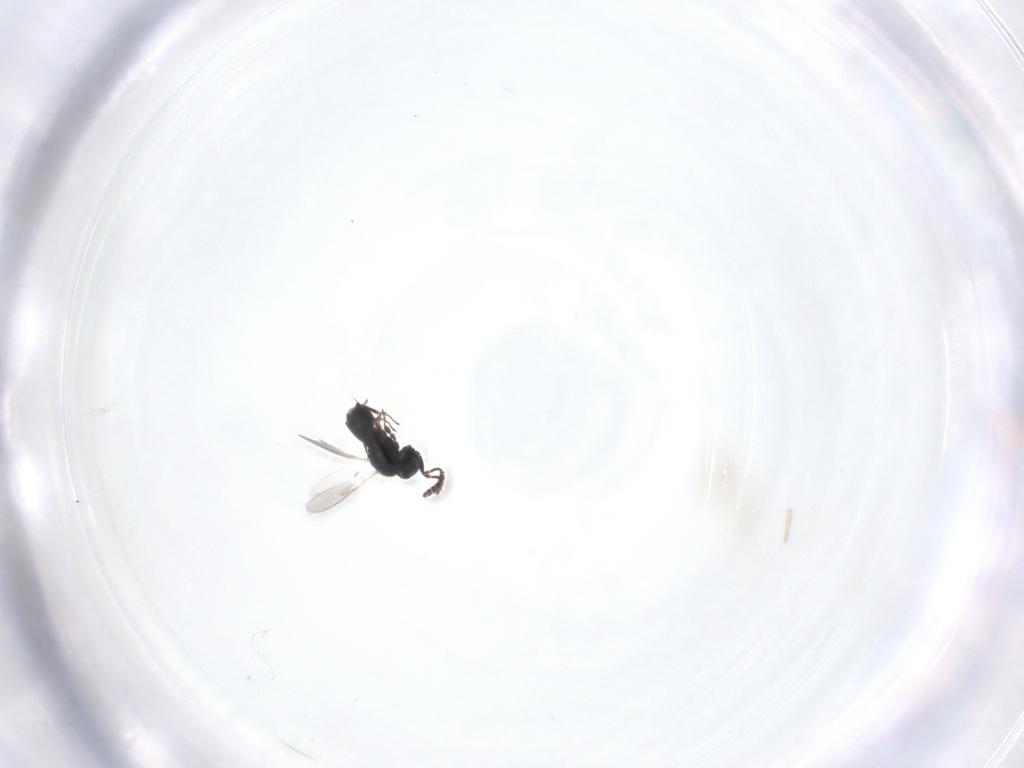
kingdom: Animalia
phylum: Arthropoda
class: Insecta
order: Hymenoptera
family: Scelionidae
